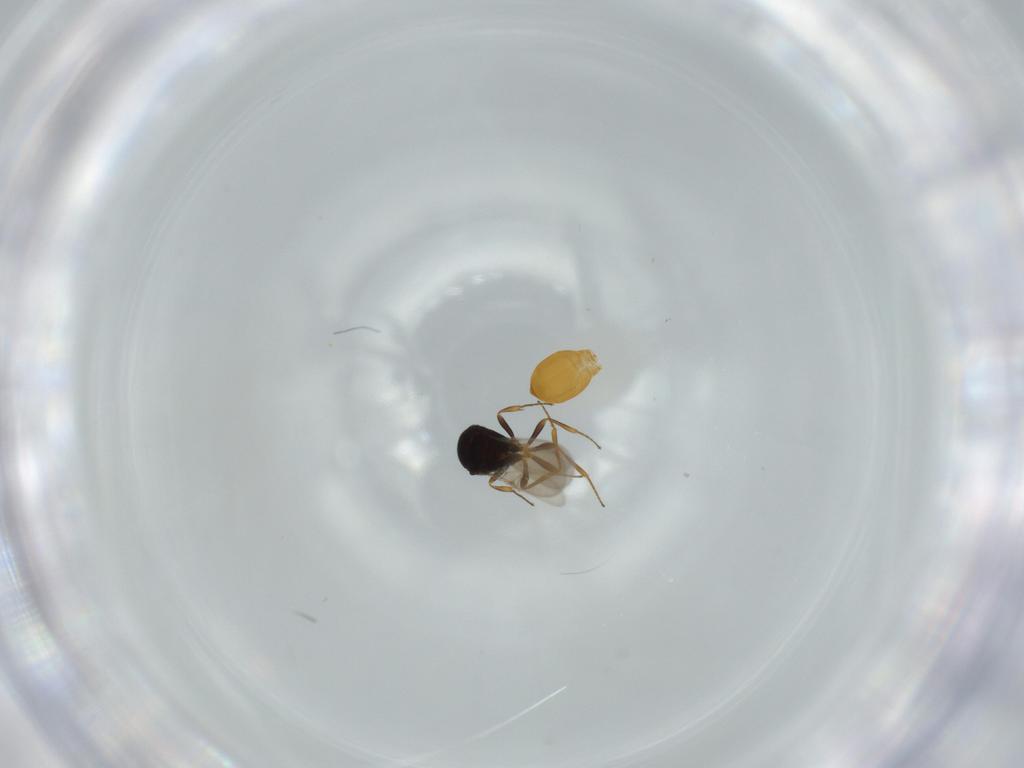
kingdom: Animalia
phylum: Arthropoda
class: Insecta
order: Hymenoptera
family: Scelionidae
